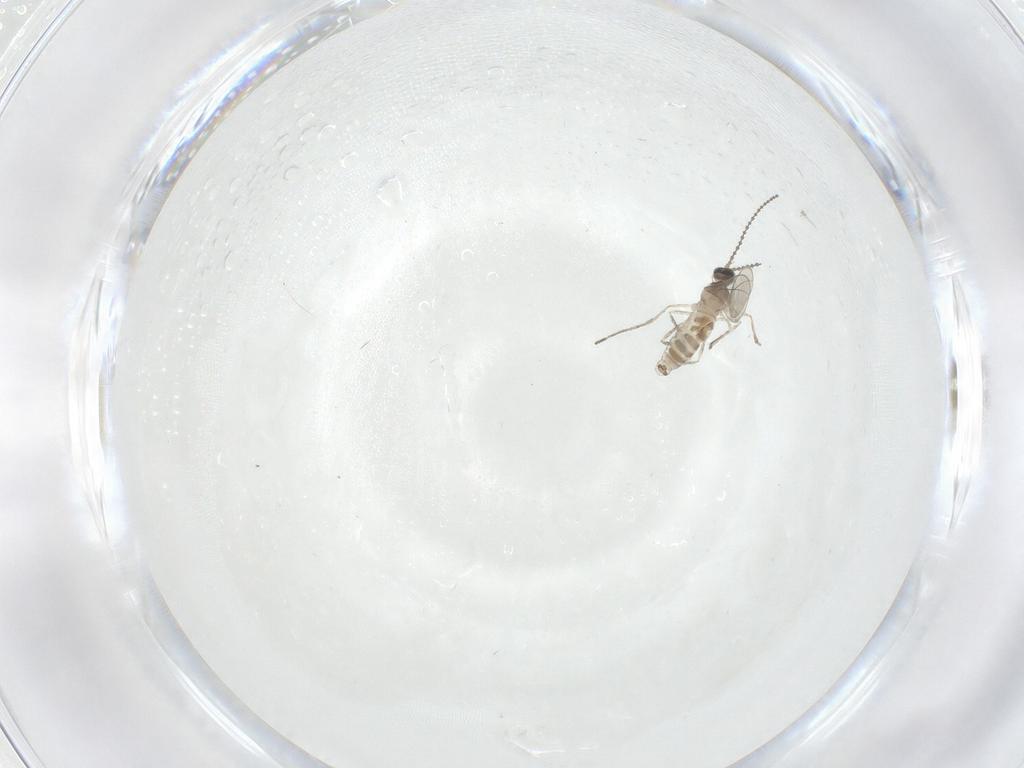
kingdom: Animalia
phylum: Arthropoda
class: Insecta
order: Diptera
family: Cecidomyiidae
